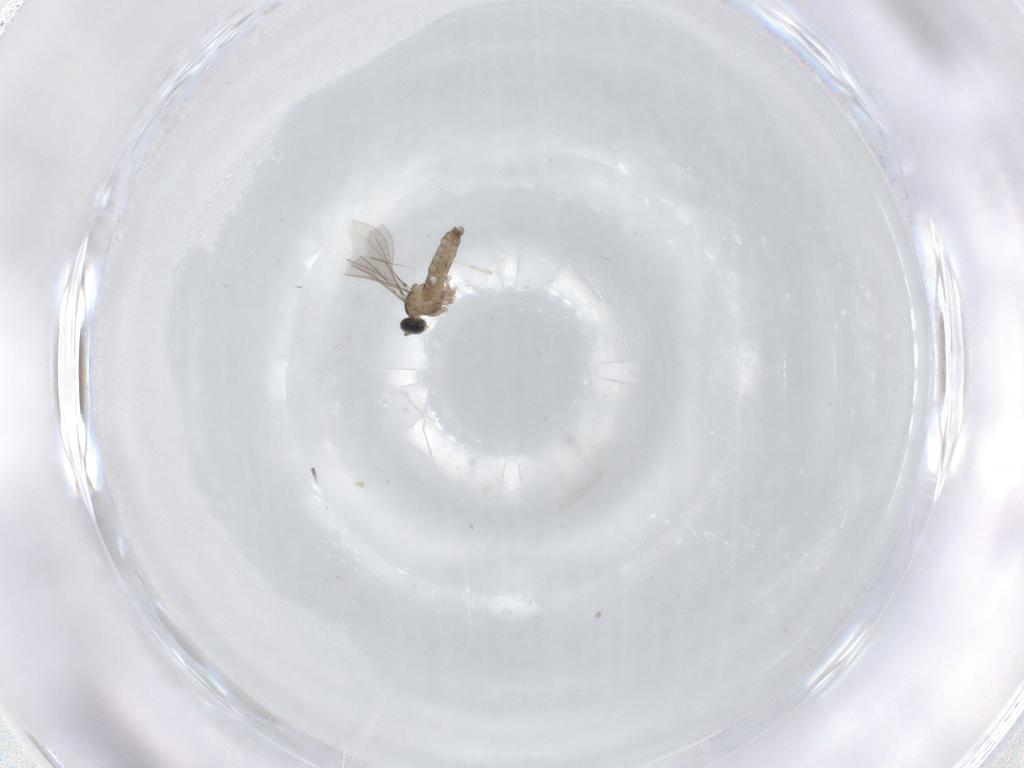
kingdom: Animalia
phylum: Arthropoda
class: Insecta
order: Diptera
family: Cecidomyiidae
